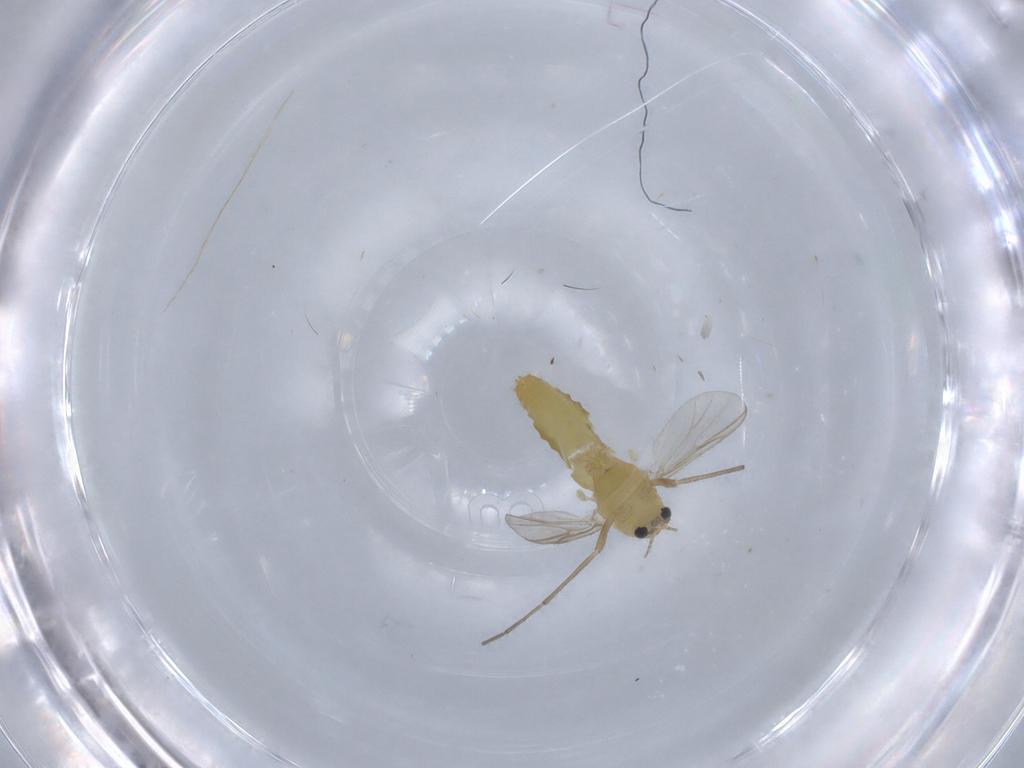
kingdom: Animalia
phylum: Arthropoda
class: Insecta
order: Diptera
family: Chironomidae
